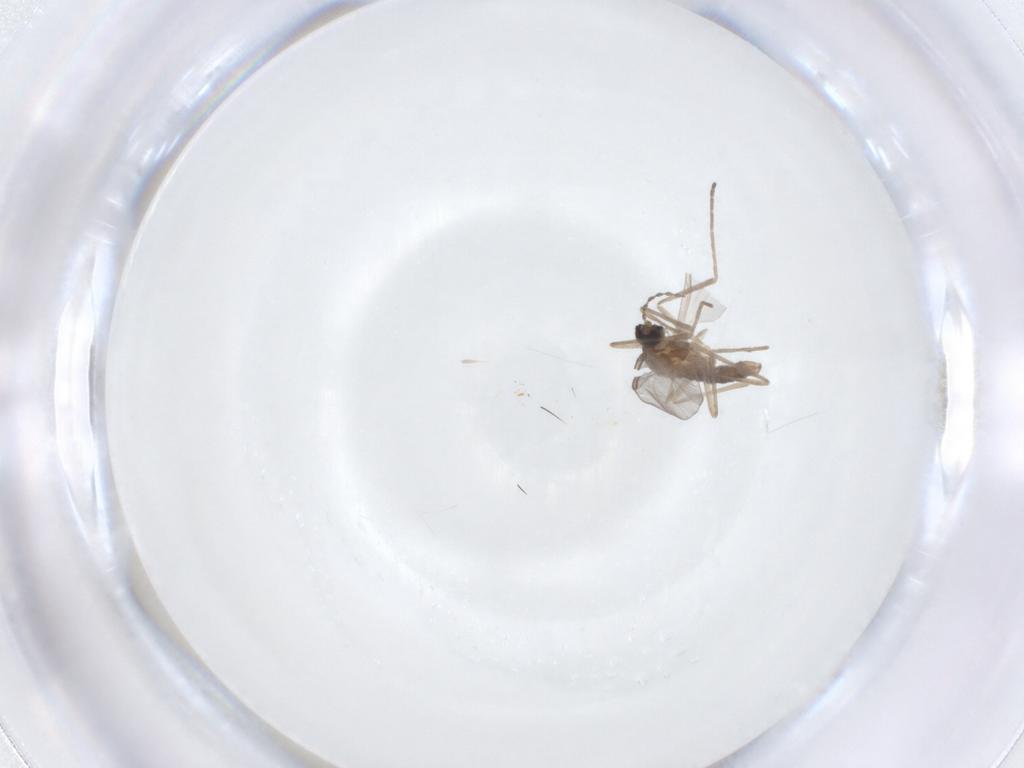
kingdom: Animalia
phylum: Arthropoda
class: Insecta
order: Diptera
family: Cecidomyiidae
